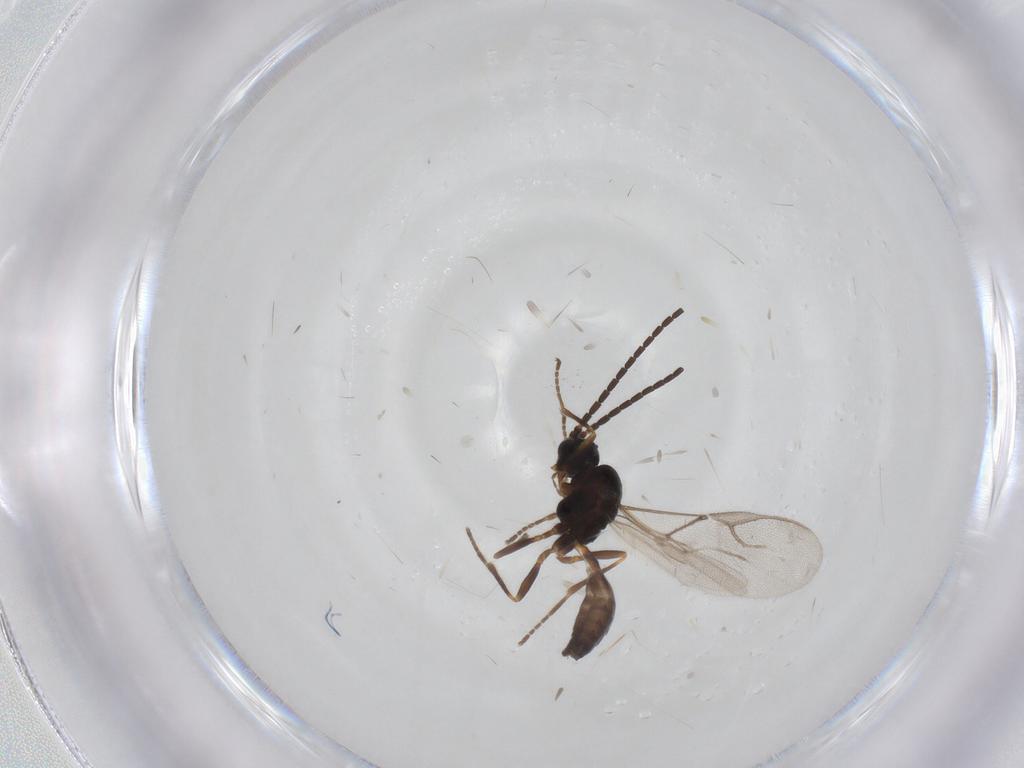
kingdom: Animalia
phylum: Arthropoda
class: Insecta
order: Hymenoptera
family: Braconidae
